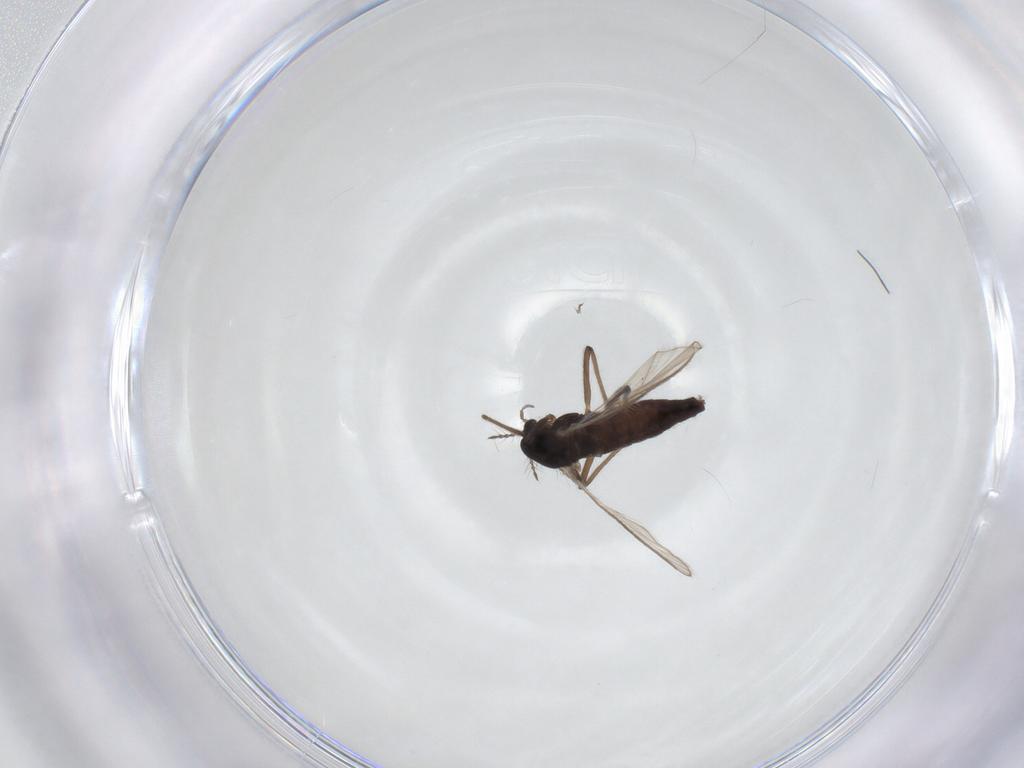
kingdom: Animalia
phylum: Arthropoda
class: Insecta
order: Diptera
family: Chironomidae
